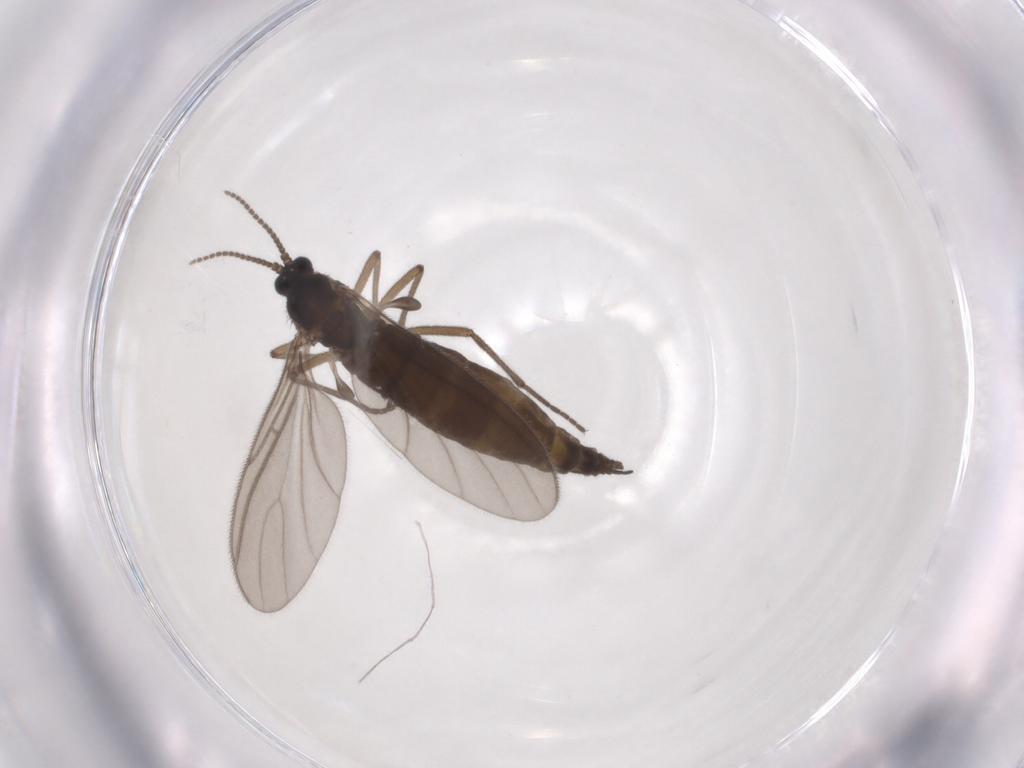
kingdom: Animalia
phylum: Arthropoda
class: Insecta
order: Diptera
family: Sciaridae
